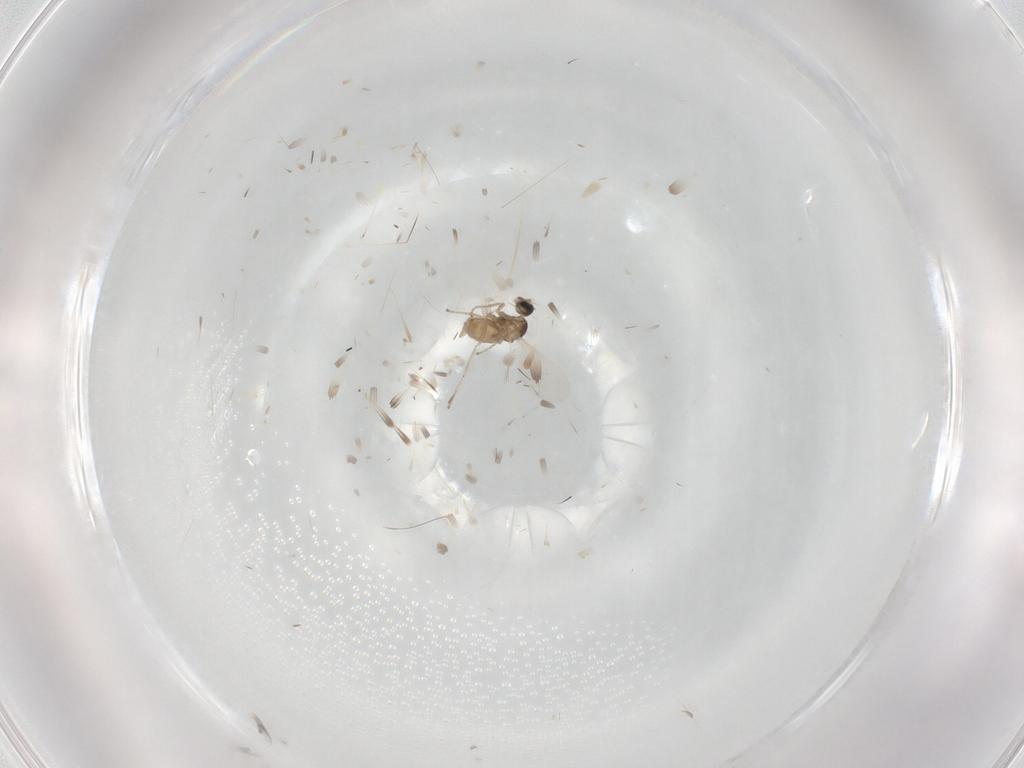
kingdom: Animalia
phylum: Arthropoda
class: Insecta
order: Diptera
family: Cecidomyiidae
